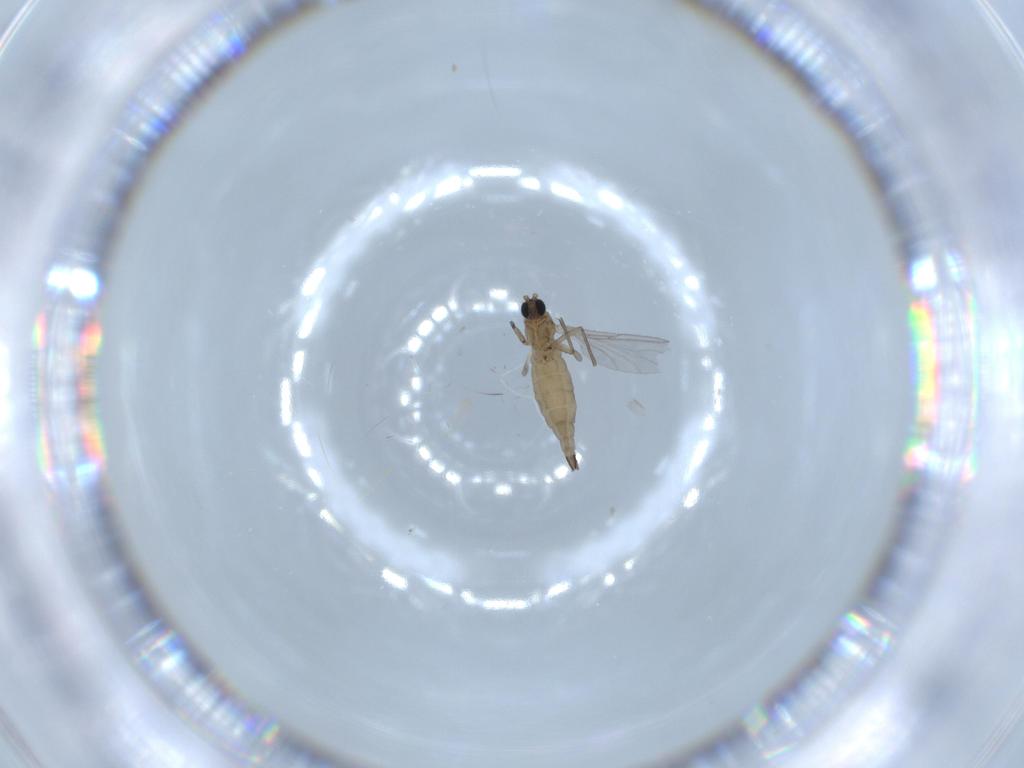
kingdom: Animalia
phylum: Arthropoda
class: Insecta
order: Diptera
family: Sciaridae
